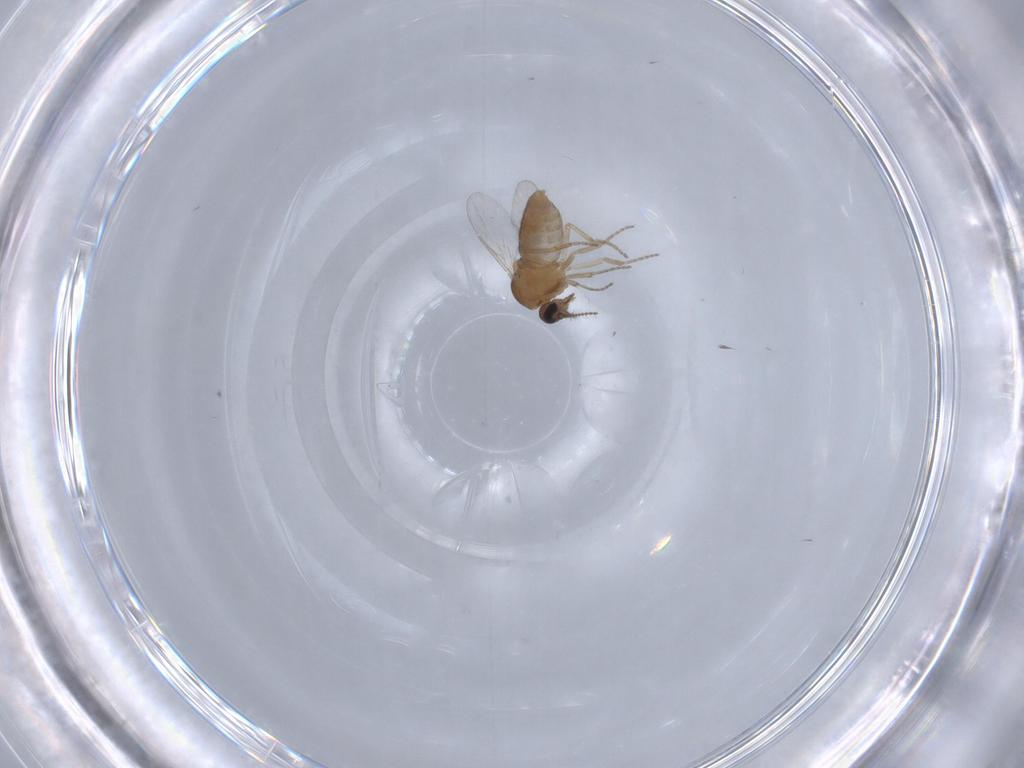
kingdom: Animalia
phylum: Arthropoda
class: Insecta
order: Diptera
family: Ceratopogonidae
